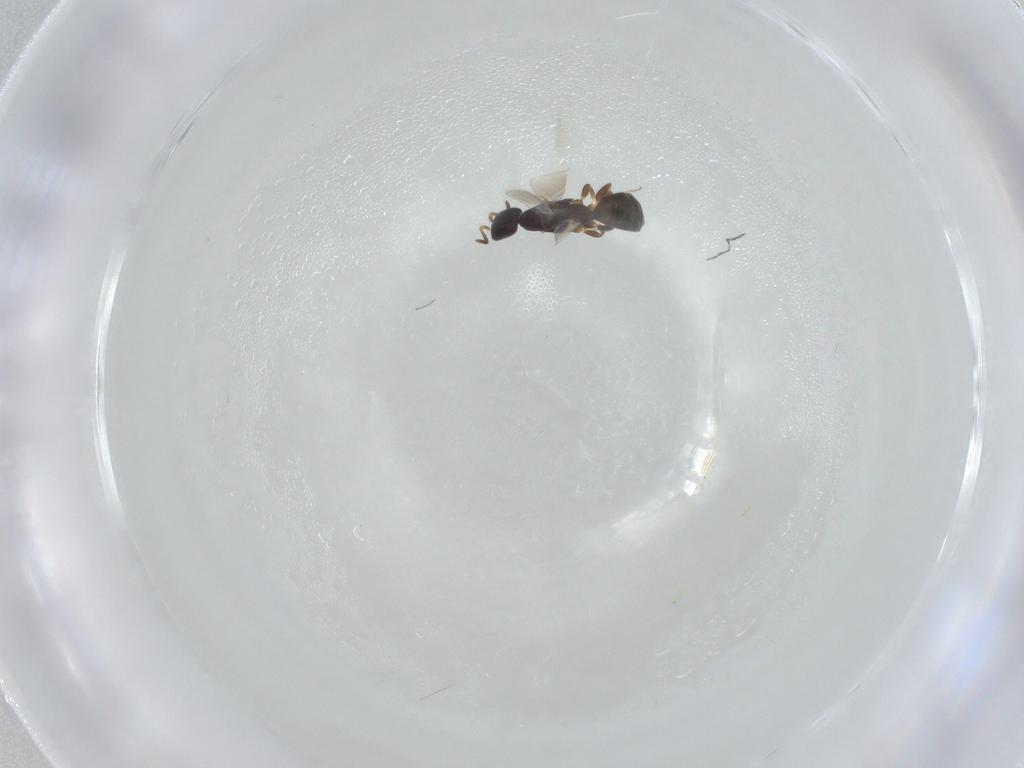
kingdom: Animalia
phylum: Arthropoda
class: Insecta
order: Hymenoptera
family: Bethylidae
